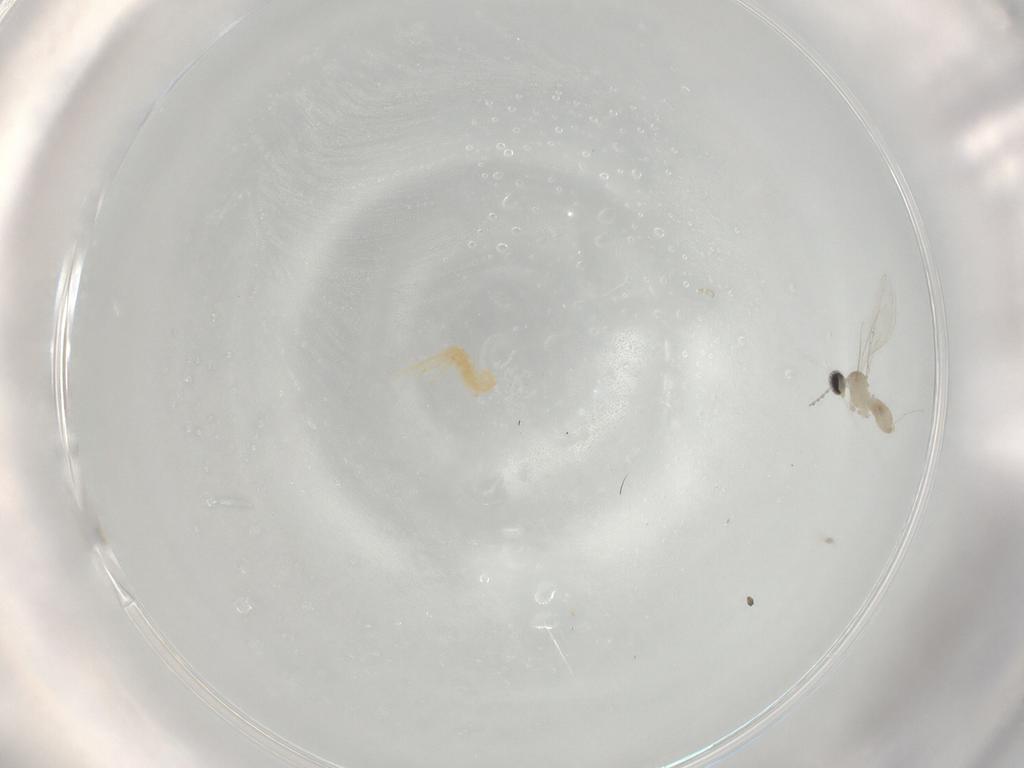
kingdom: Animalia
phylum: Arthropoda
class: Insecta
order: Diptera
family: Cecidomyiidae
